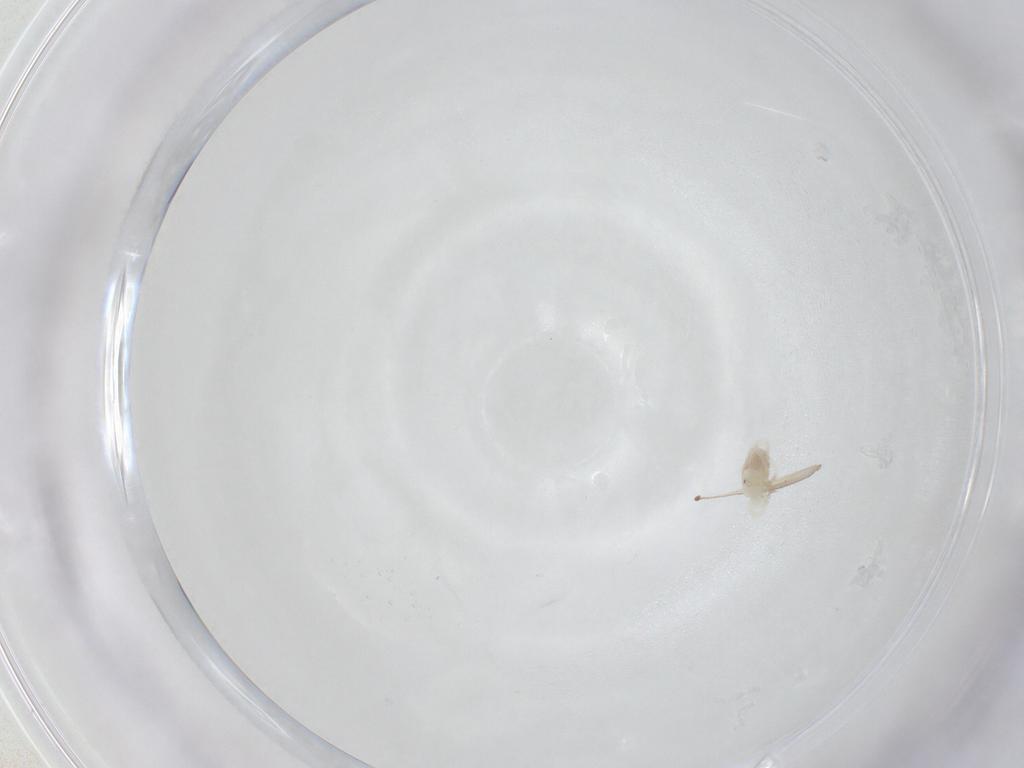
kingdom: Animalia
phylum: Arthropoda
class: Arachnida
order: Trombidiformes
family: Anystidae
